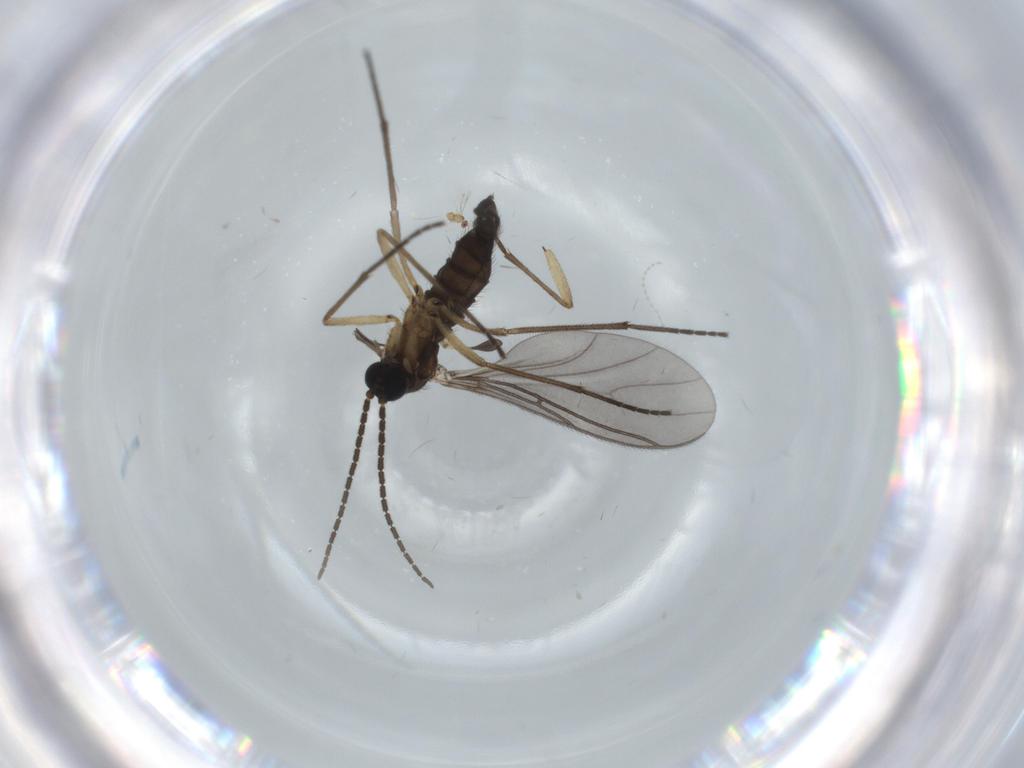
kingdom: Animalia
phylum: Arthropoda
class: Insecta
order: Diptera
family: Sciaridae
